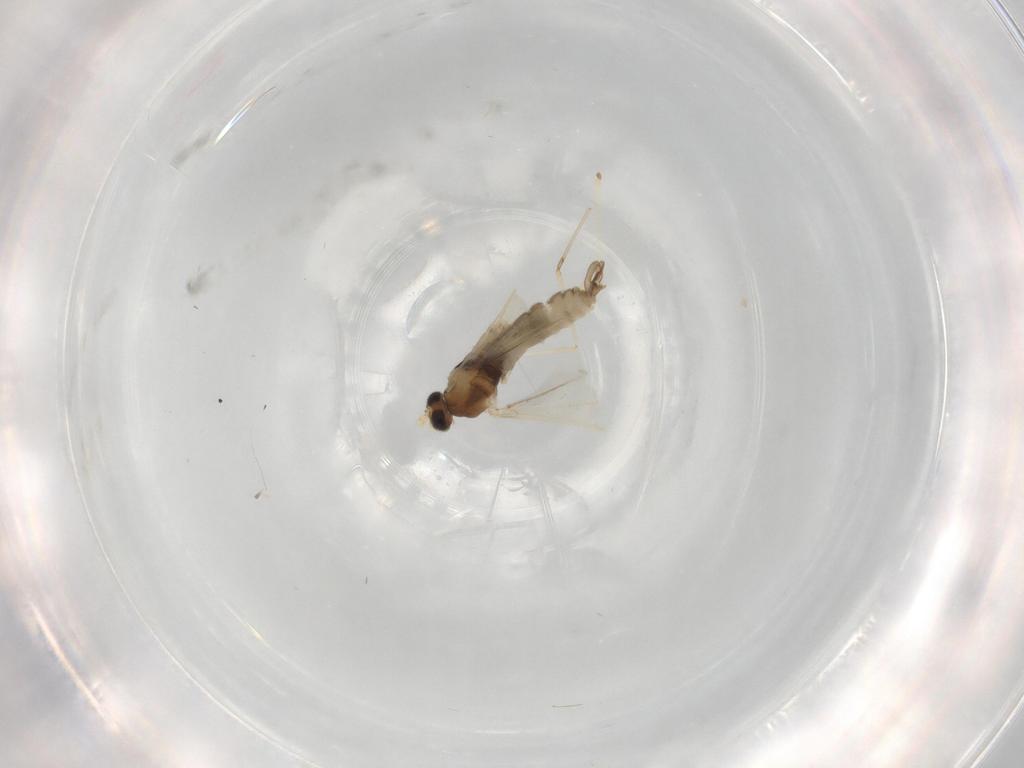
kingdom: Animalia
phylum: Arthropoda
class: Insecta
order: Diptera
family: Cecidomyiidae
